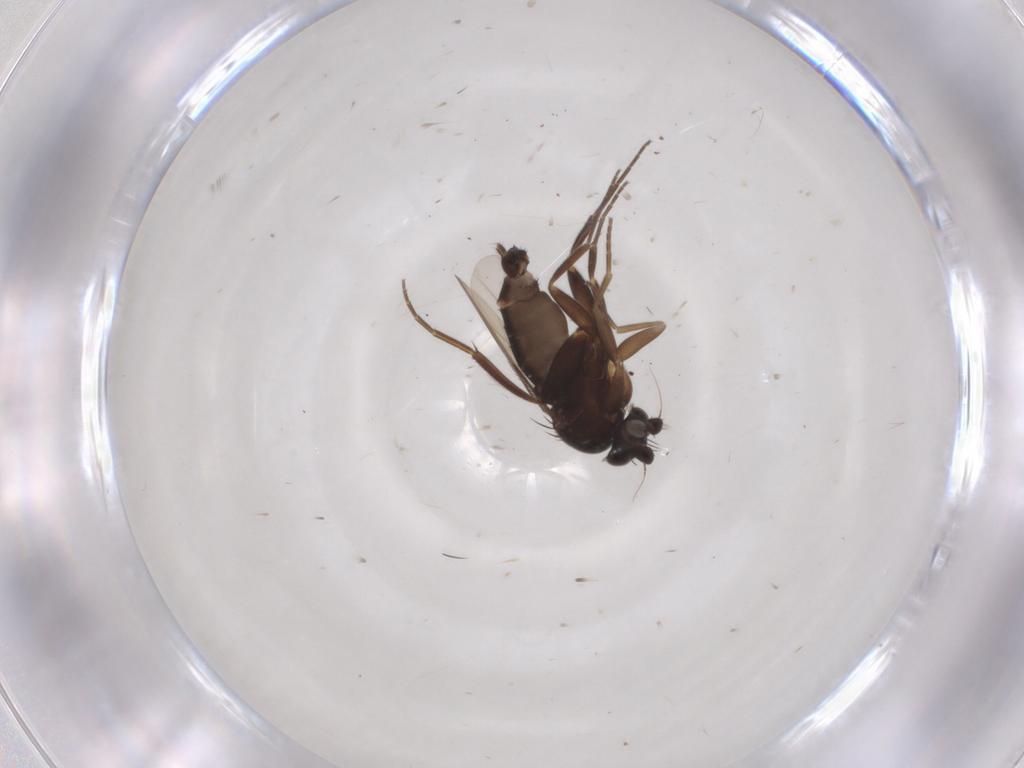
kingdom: Animalia
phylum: Arthropoda
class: Insecta
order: Diptera
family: Phoridae
